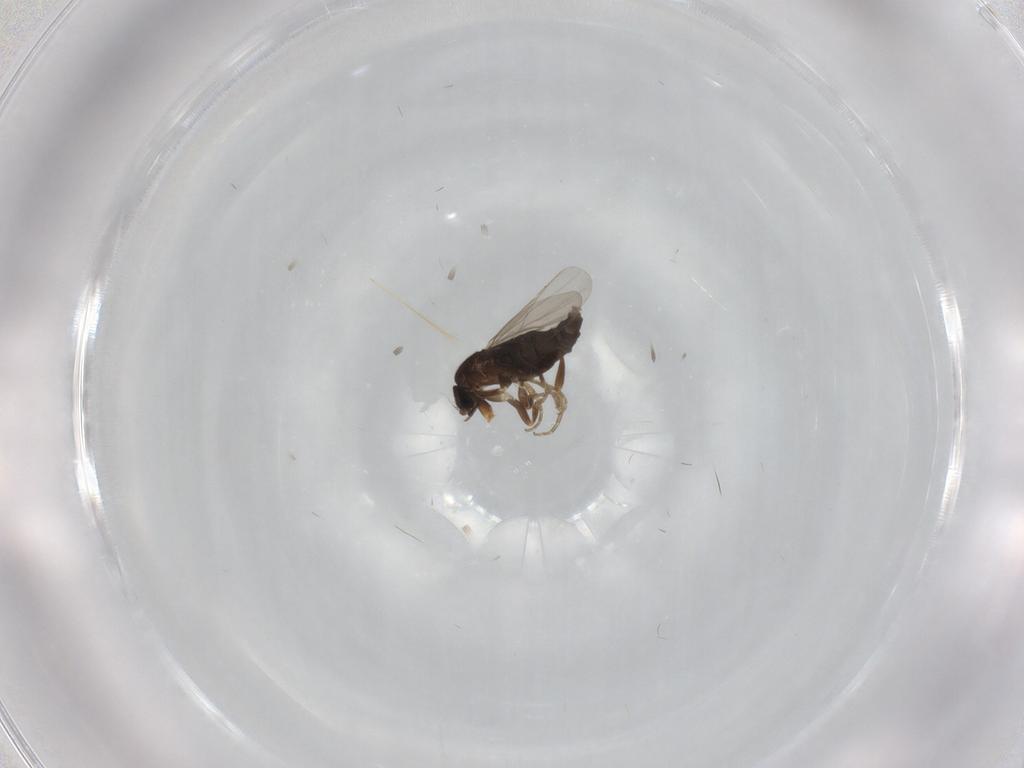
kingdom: Animalia
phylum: Arthropoda
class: Insecta
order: Diptera
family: Phoridae
